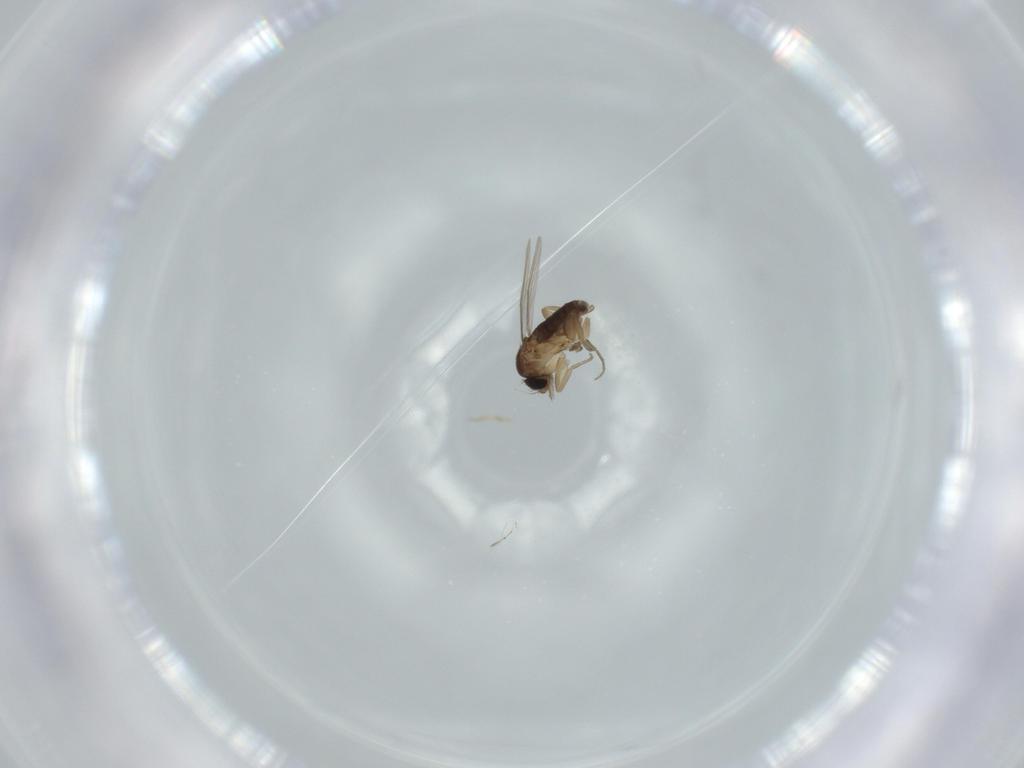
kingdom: Animalia
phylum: Arthropoda
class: Insecta
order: Diptera
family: Phoridae
